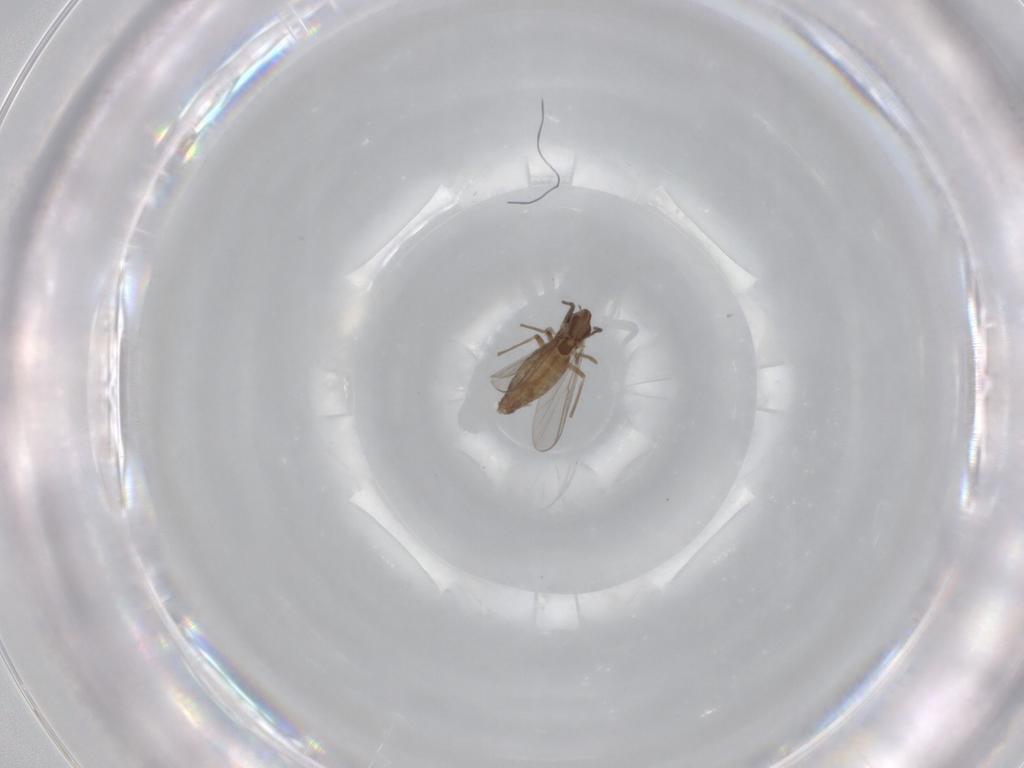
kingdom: Animalia
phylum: Arthropoda
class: Insecta
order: Diptera
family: Chironomidae
